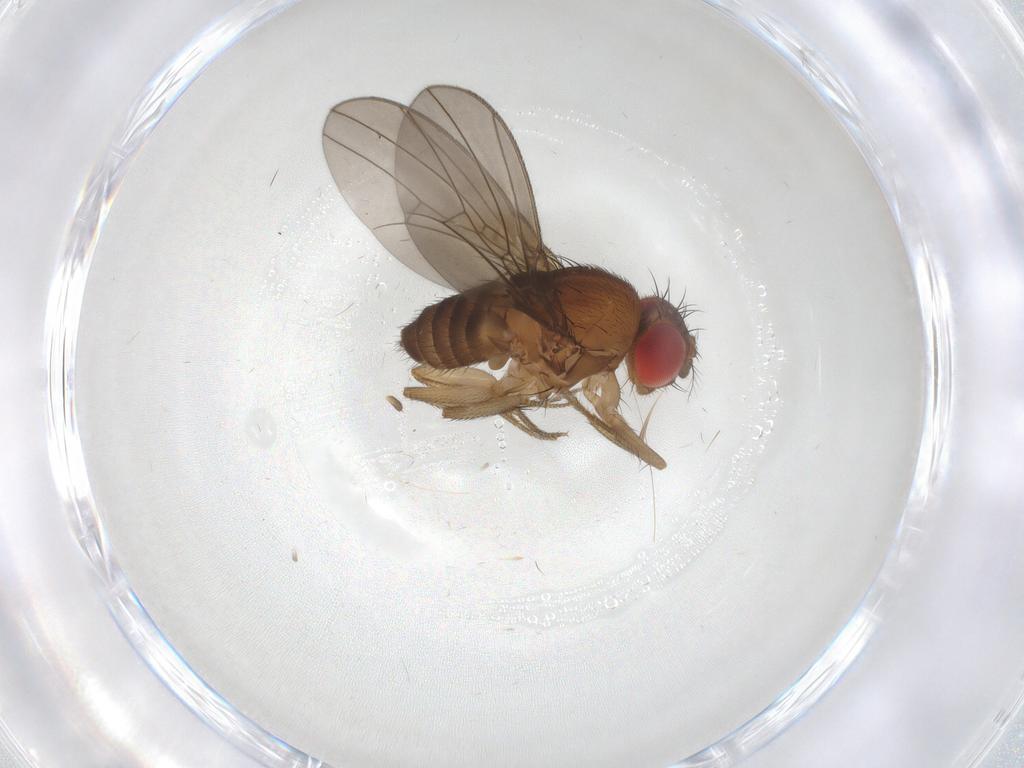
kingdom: Animalia
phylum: Arthropoda
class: Insecta
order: Diptera
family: Drosophilidae
